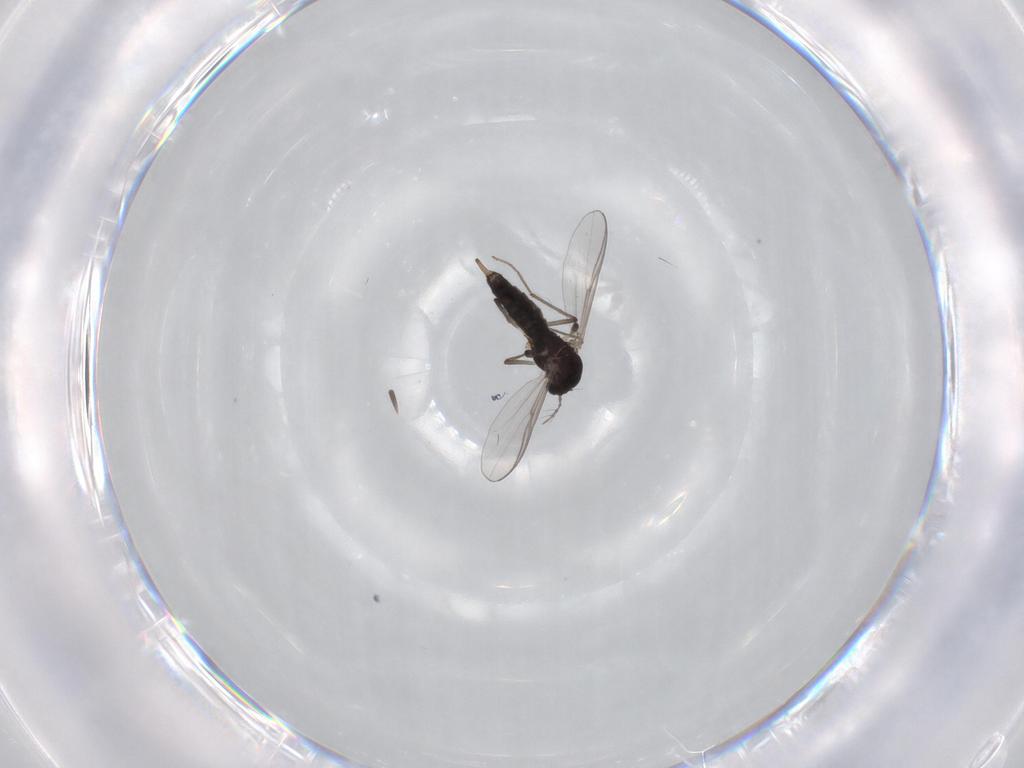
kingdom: Animalia
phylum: Arthropoda
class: Insecta
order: Diptera
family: Chironomidae
